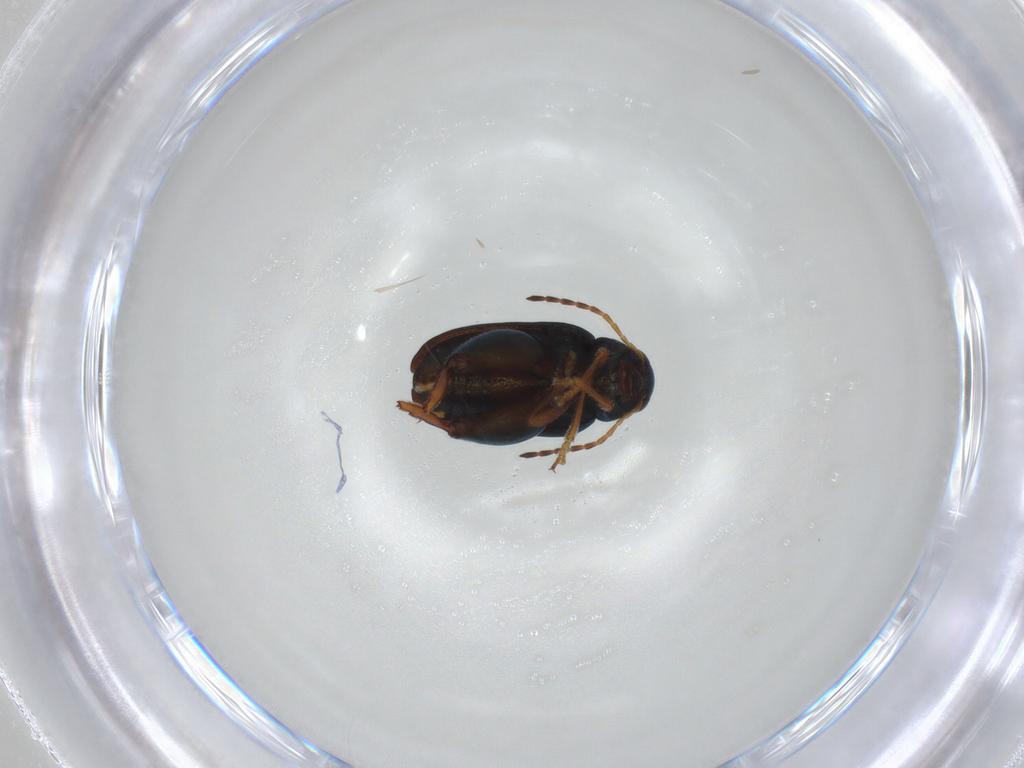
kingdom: Animalia
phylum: Arthropoda
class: Insecta
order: Coleoptera
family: Chrysomelidae
